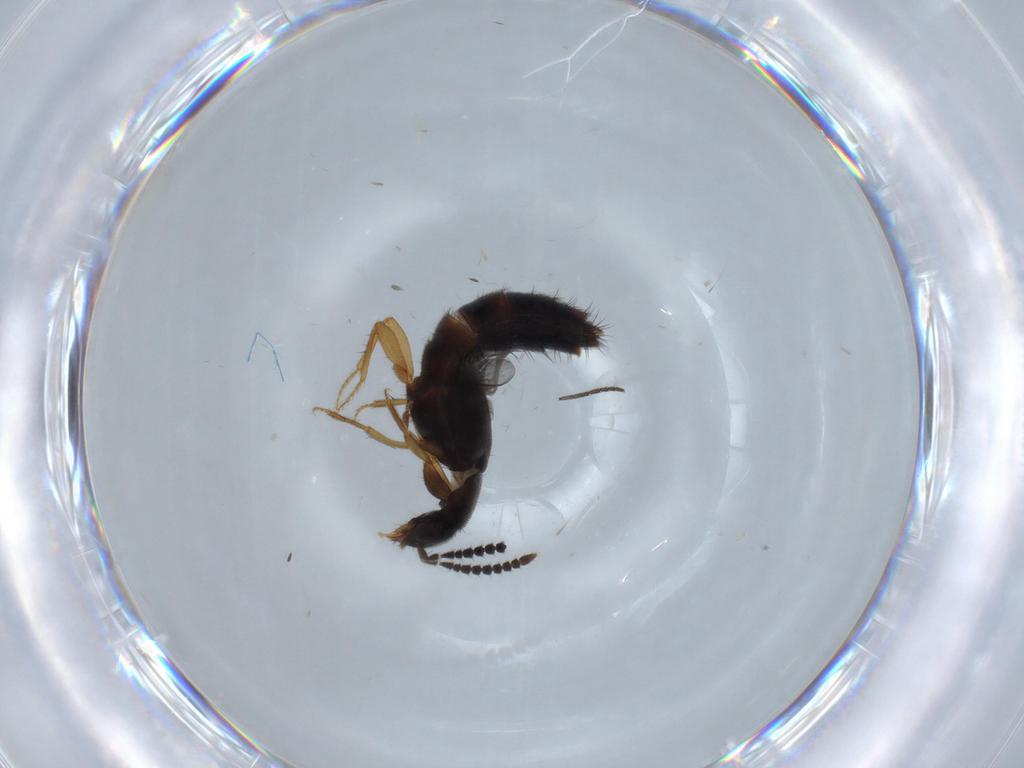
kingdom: Animalia
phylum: Arthropoda
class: Insecta
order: Coleoptera
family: Staphylinidae
